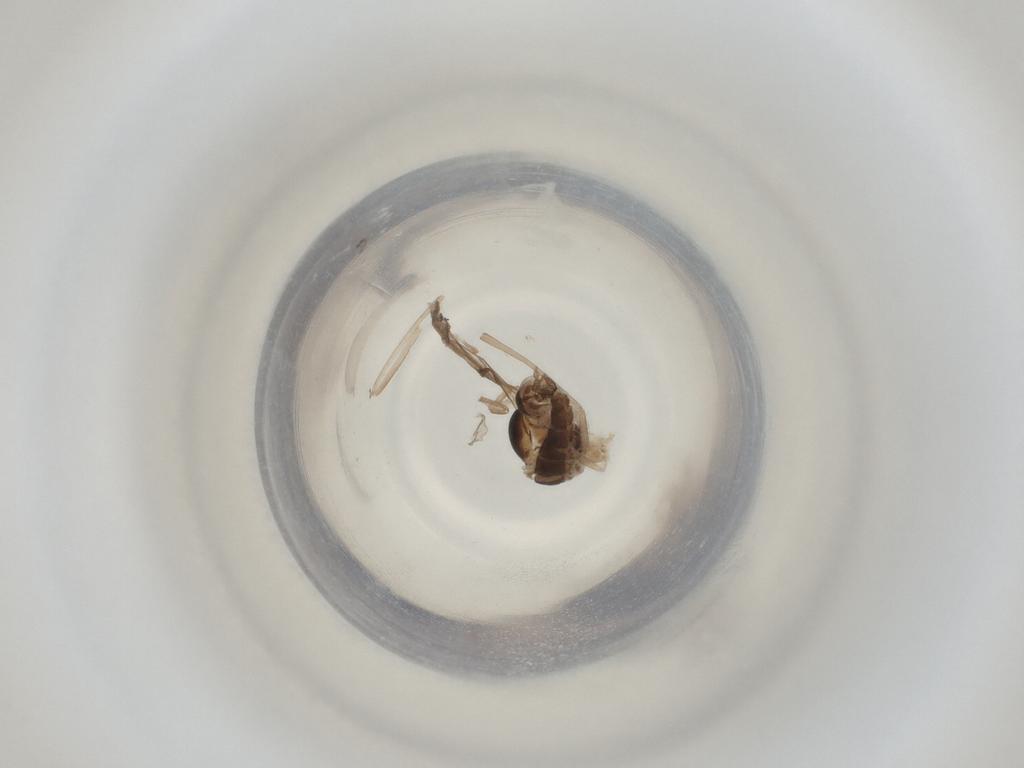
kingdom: Animalia
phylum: Arthropoda
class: Insecta
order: Diptera
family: Cecidomyiidae
